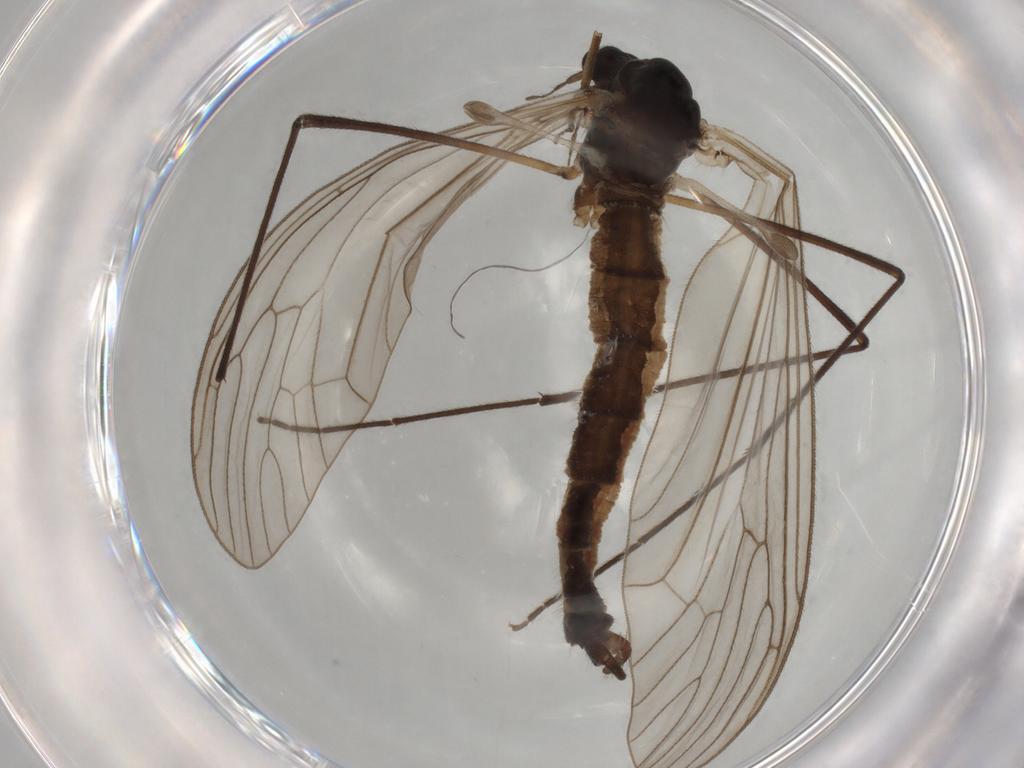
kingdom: Animalia
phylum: Arthropoda
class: Insecta
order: Diptera
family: Trichoceridae
